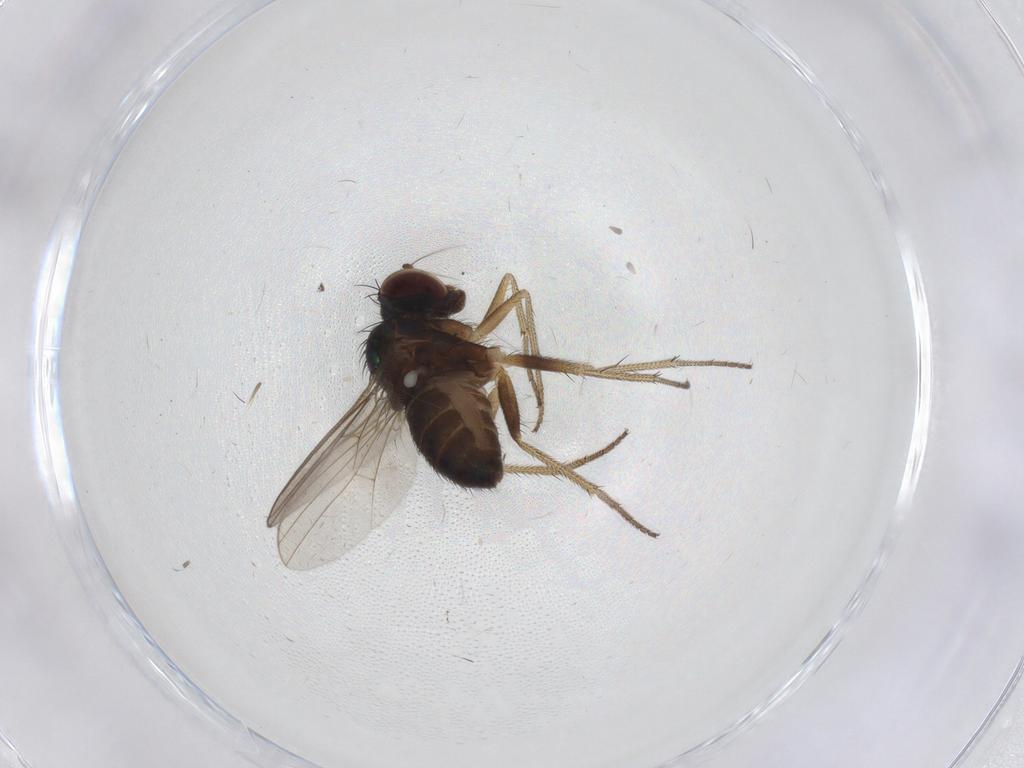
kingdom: Animalia
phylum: Arthropoda
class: Insecta
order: Diptera
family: Dolichopodidae
